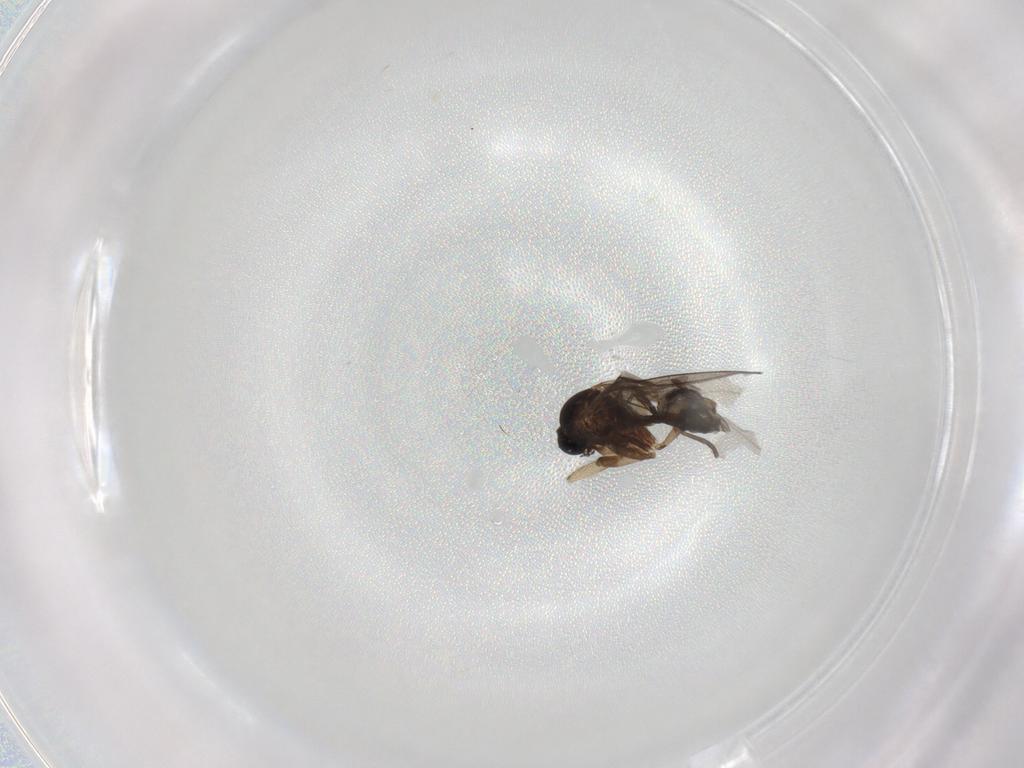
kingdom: Animalia
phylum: Arthropoda
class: Insecta
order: Diptera
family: Sciaridae
